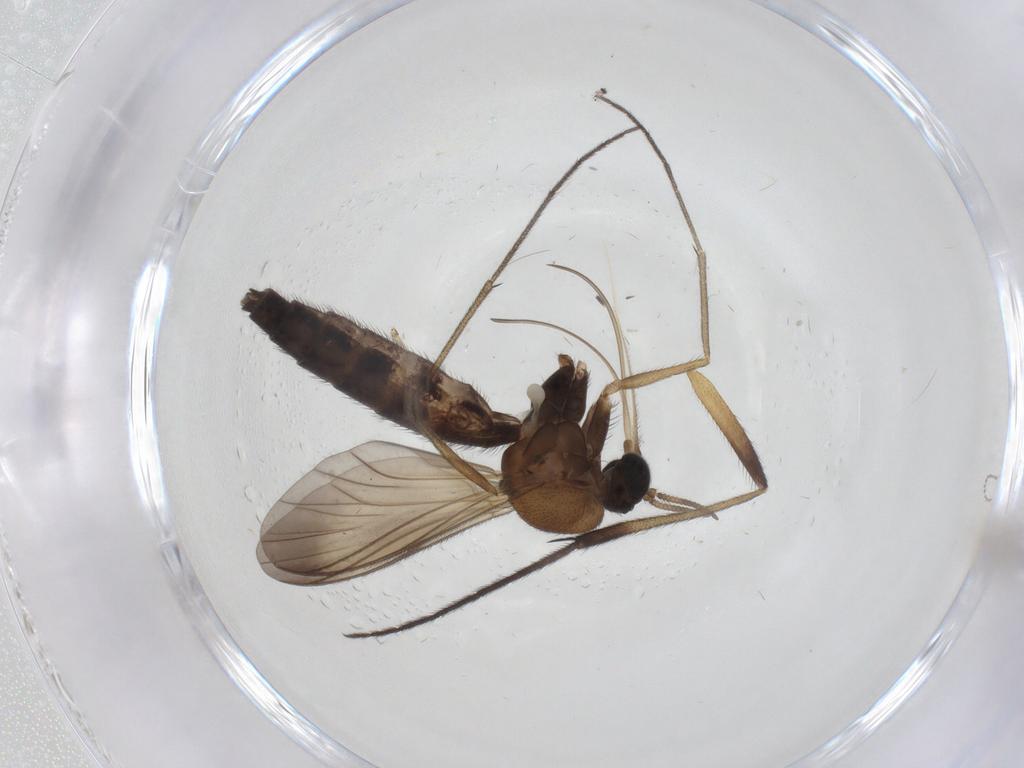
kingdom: Animalia
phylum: Arthropoda
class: Insecta
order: Diptera
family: Cecidomyiidae
